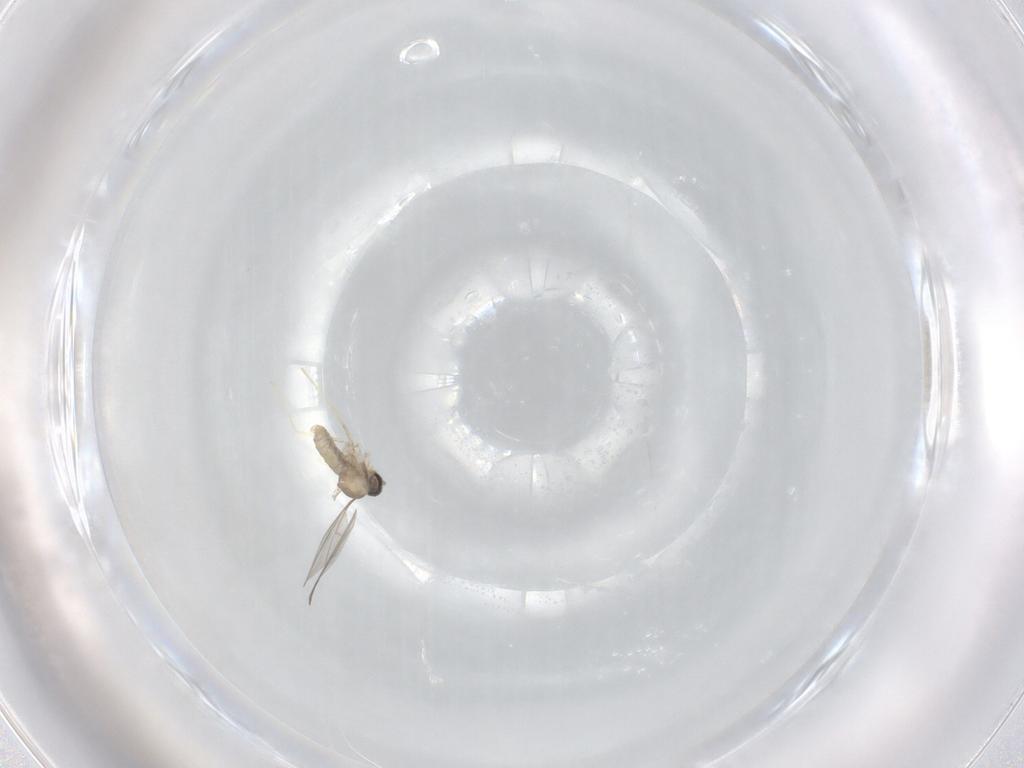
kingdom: Animalia
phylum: Arthropoda
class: Insecta
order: Diptera
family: Cecidomyiidae
